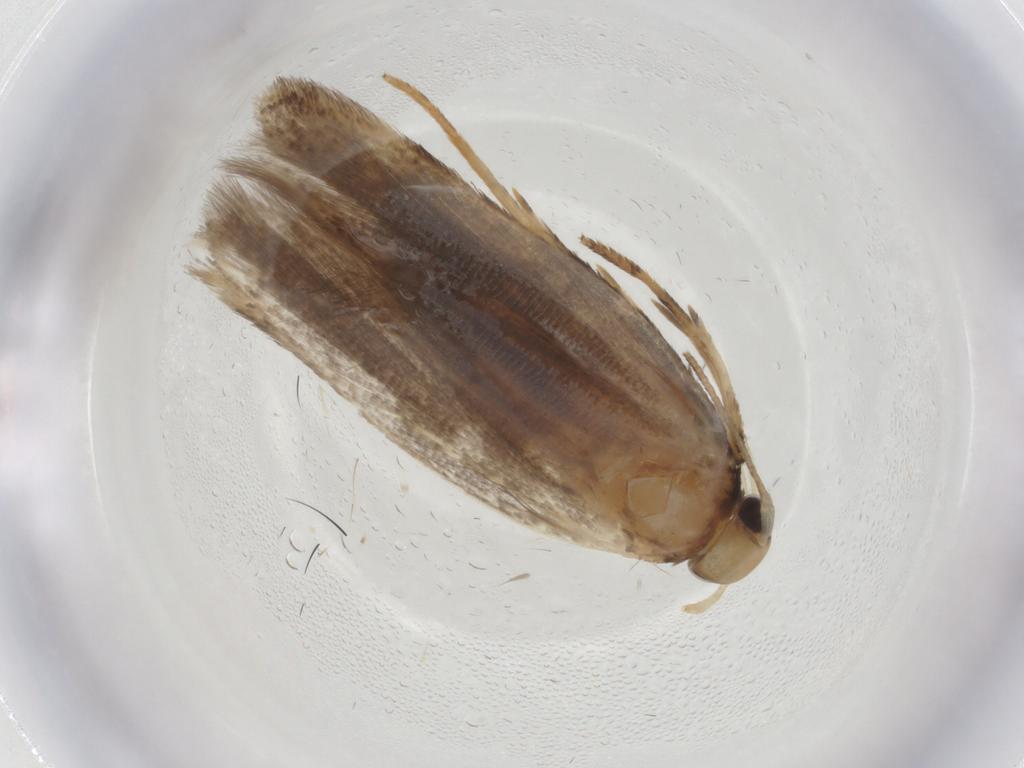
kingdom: Animalia
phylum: Arthropoda
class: Insecta
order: Lepidoptera
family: Gelechiidae
